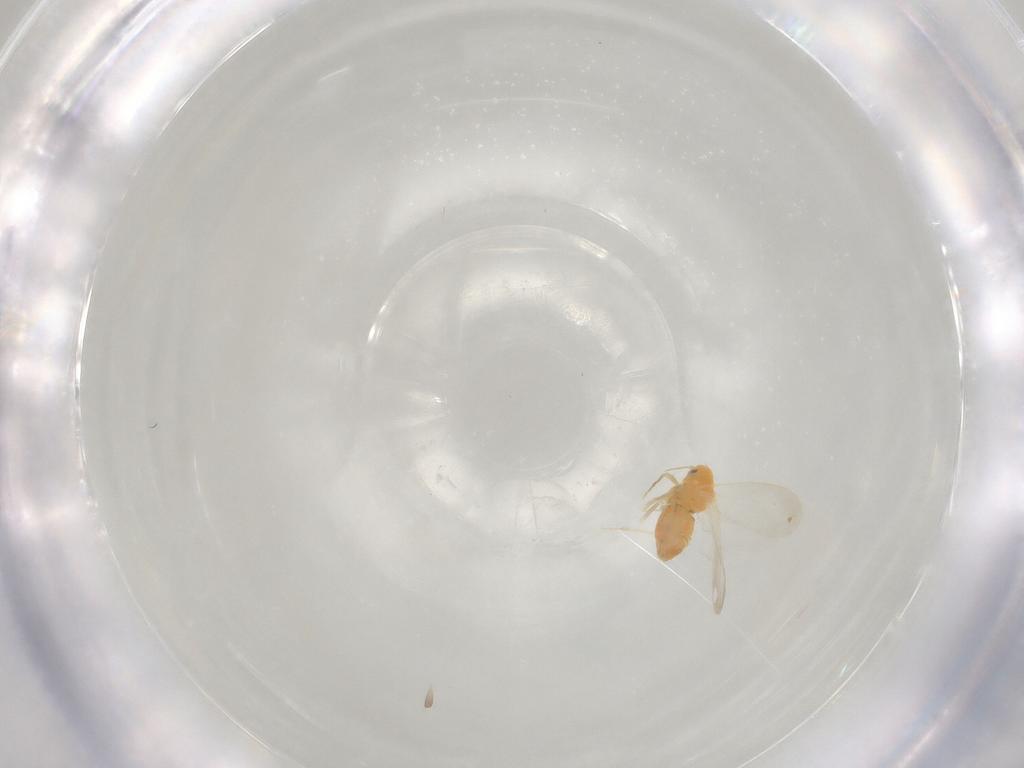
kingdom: Animalia
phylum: Arthropoda
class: Insecta
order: Hemiptera
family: Aleyrodidae
